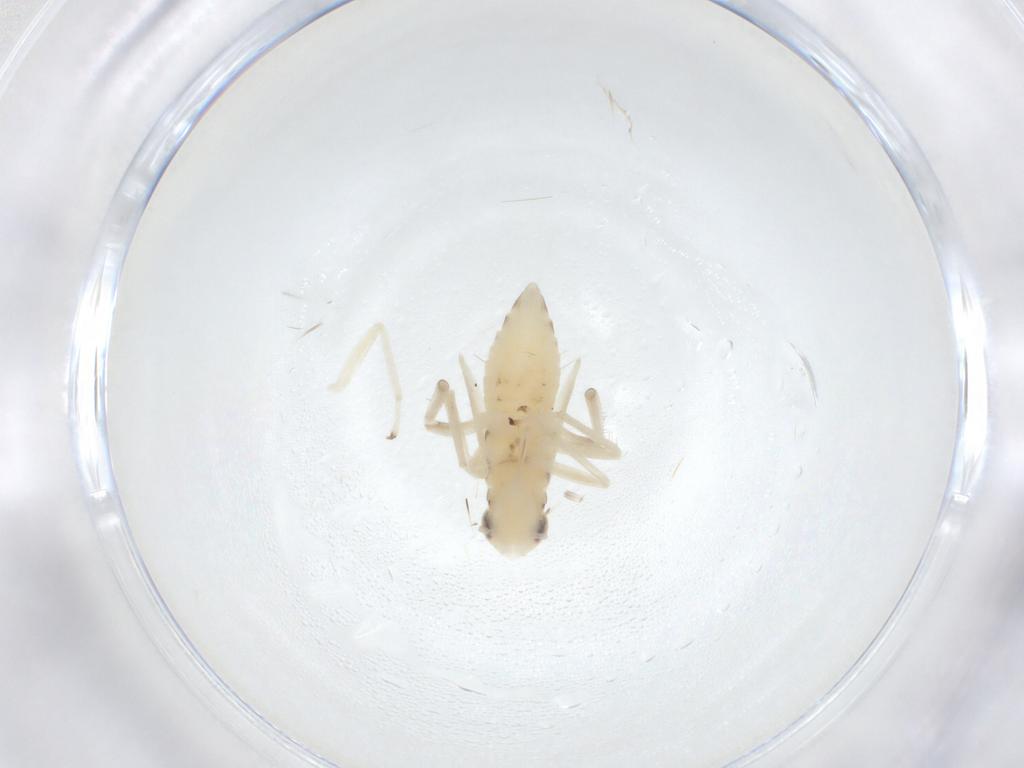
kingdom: Animalia
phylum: Arthropoda
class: Insecta
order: Hemiptera
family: Cicadellidae
